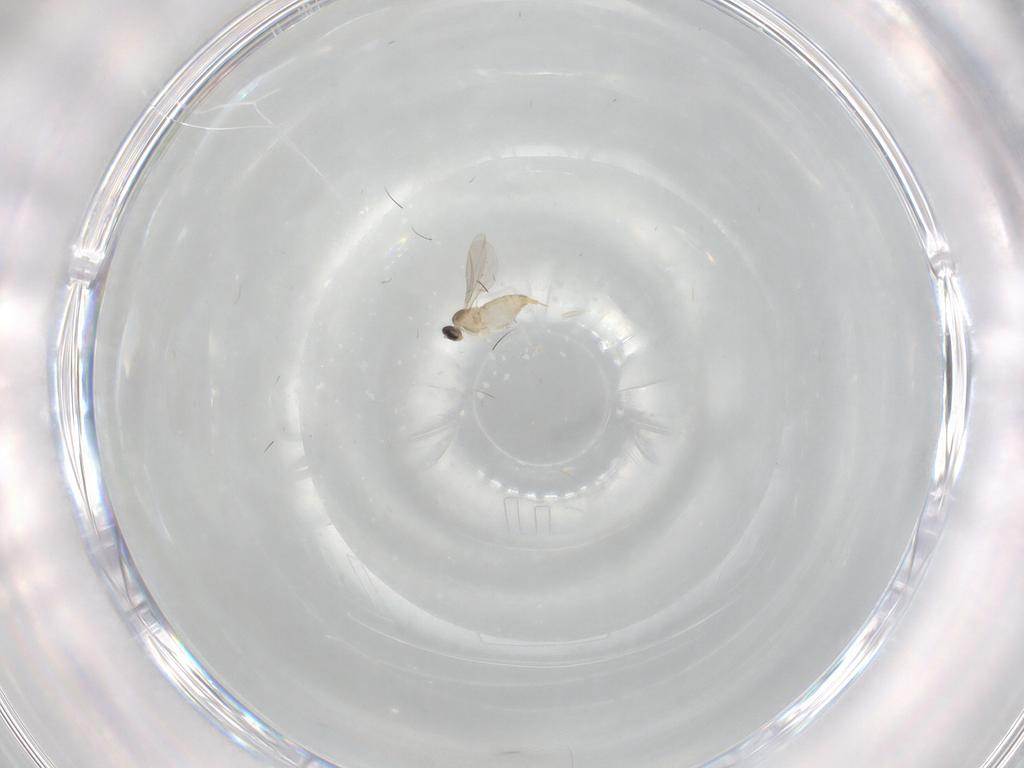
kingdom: Animalia
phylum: Arthropoda
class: Insecta
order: Diptera
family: Cecidomyiidae
